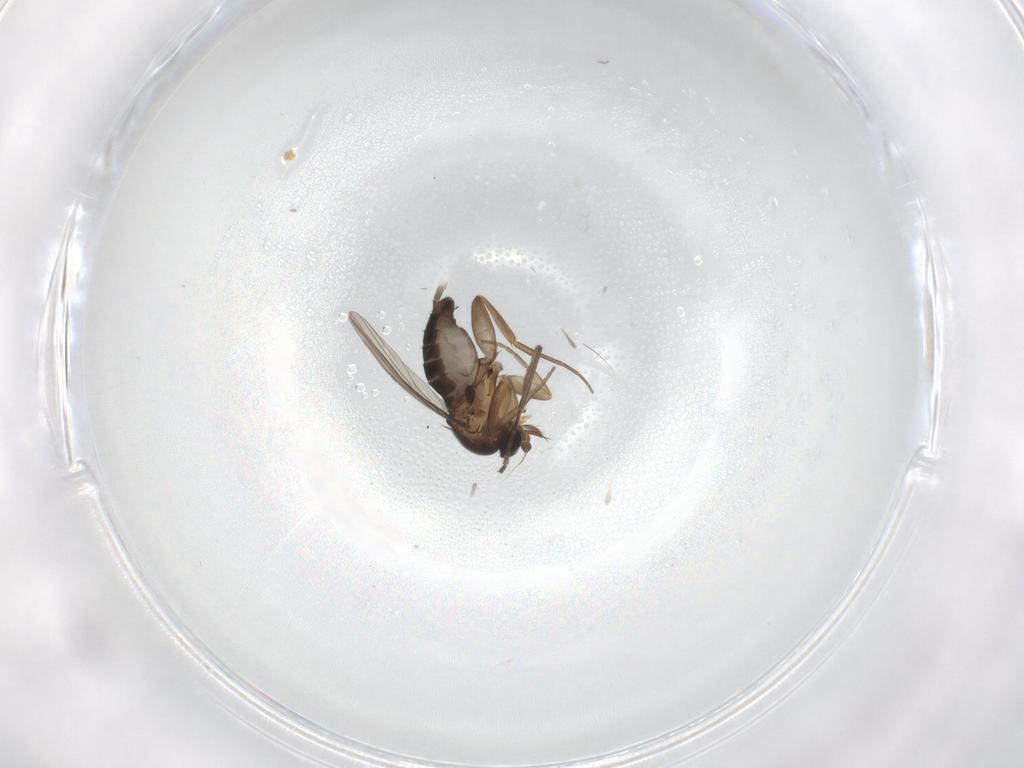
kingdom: Animalia
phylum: Arthropoda
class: Insecta
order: Diptera
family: Phoridae
